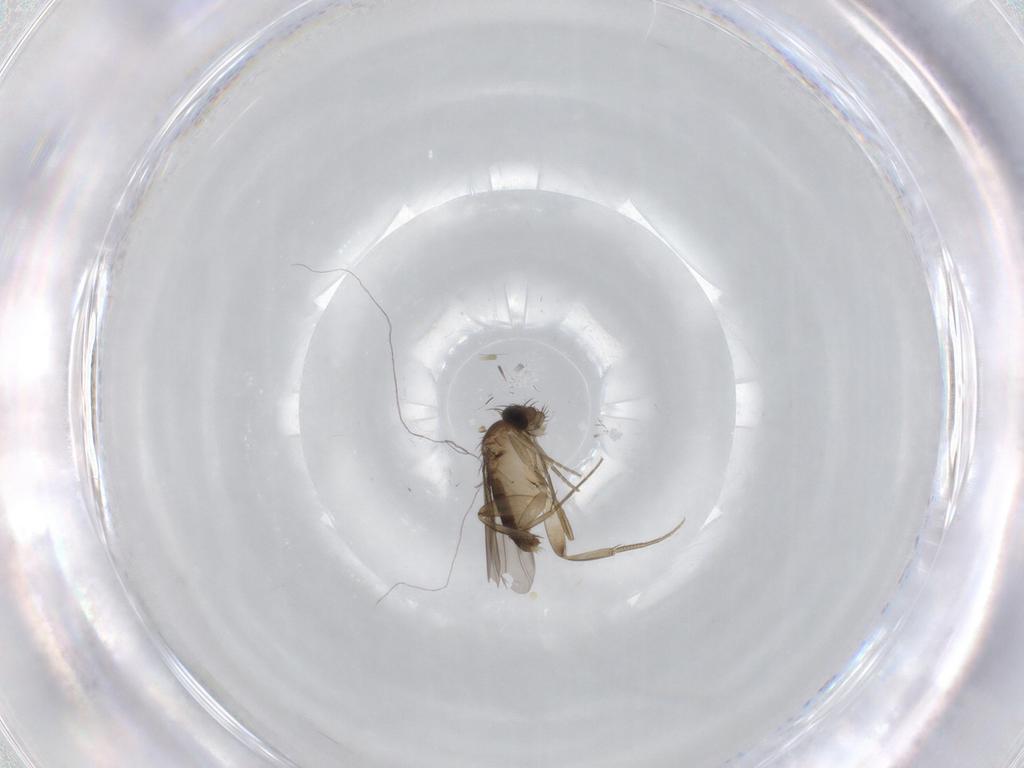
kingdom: Animalia
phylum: Arthropoda
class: Insecta
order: Diptera
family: Phoridae
